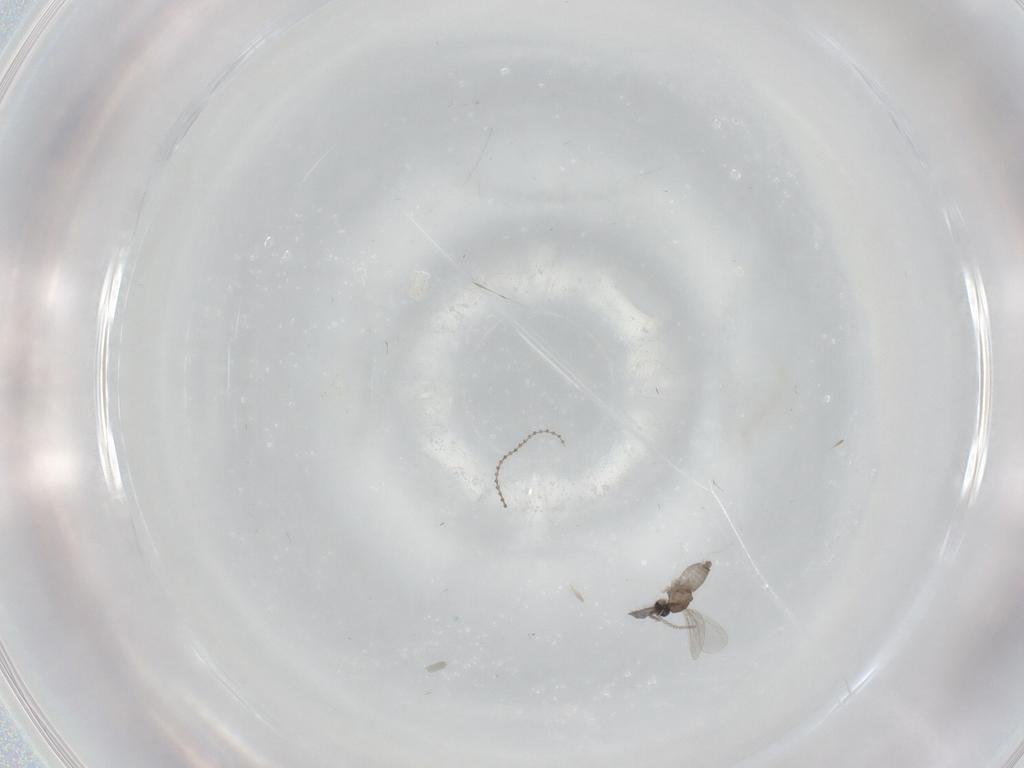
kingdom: Animalia
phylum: Arthropoda
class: Insecta
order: Diptera
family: Cecidomyiidae
